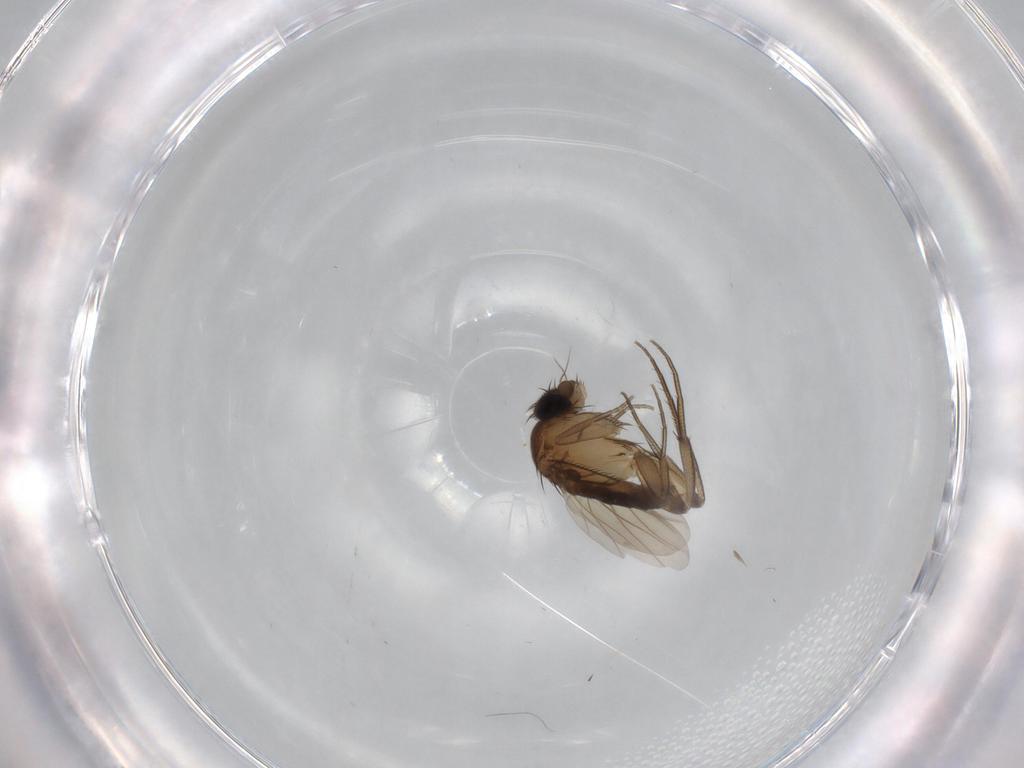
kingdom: Animalia
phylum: Arthropoda
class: Insecta
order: Diptera
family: Phoridae
